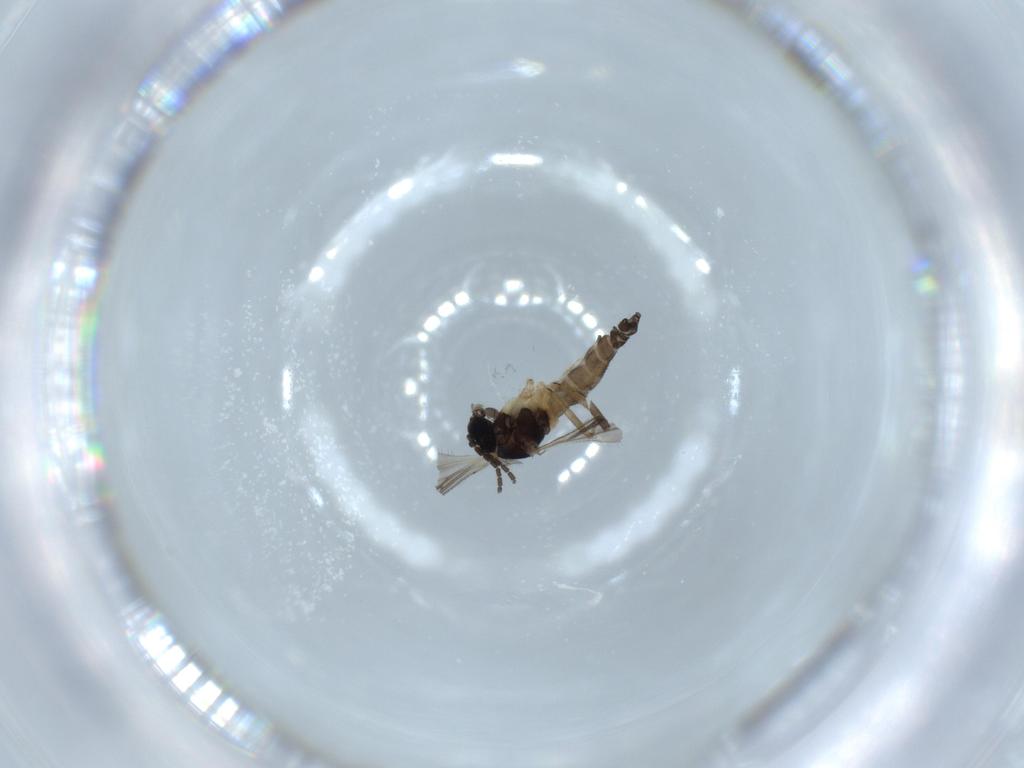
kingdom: Animalia
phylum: Arthropoda
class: Insecta
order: Diptera
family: Sciaridae
